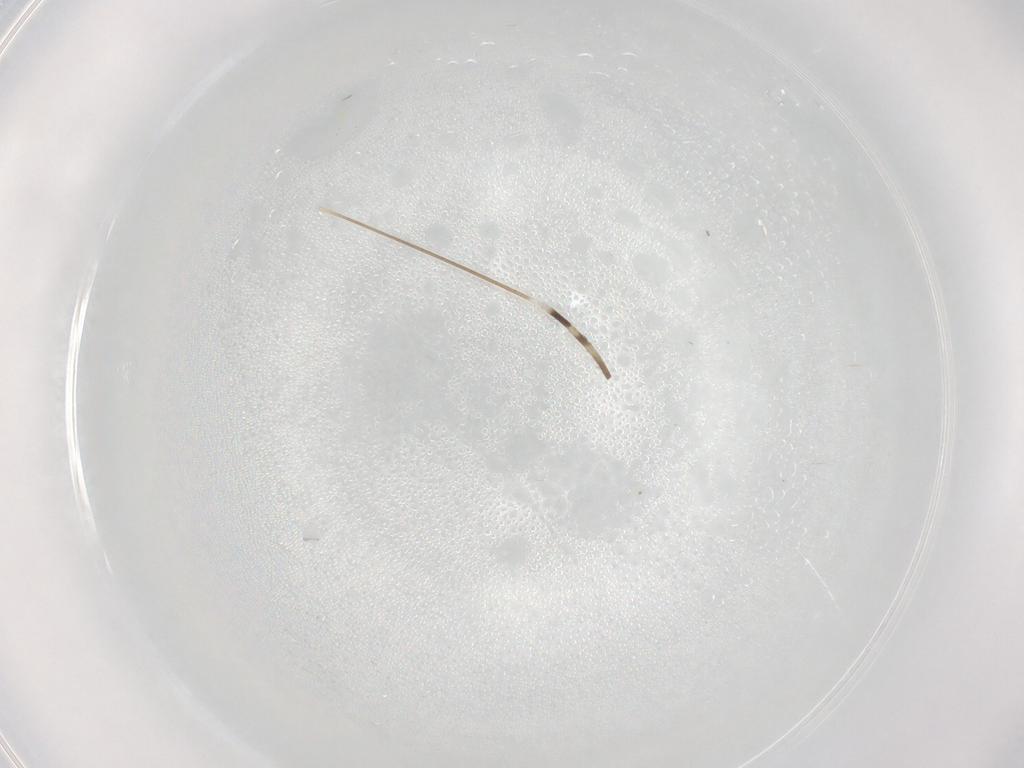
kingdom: Animalia
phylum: Arthropoda
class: Insecta
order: Diptera
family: Limoniidae
